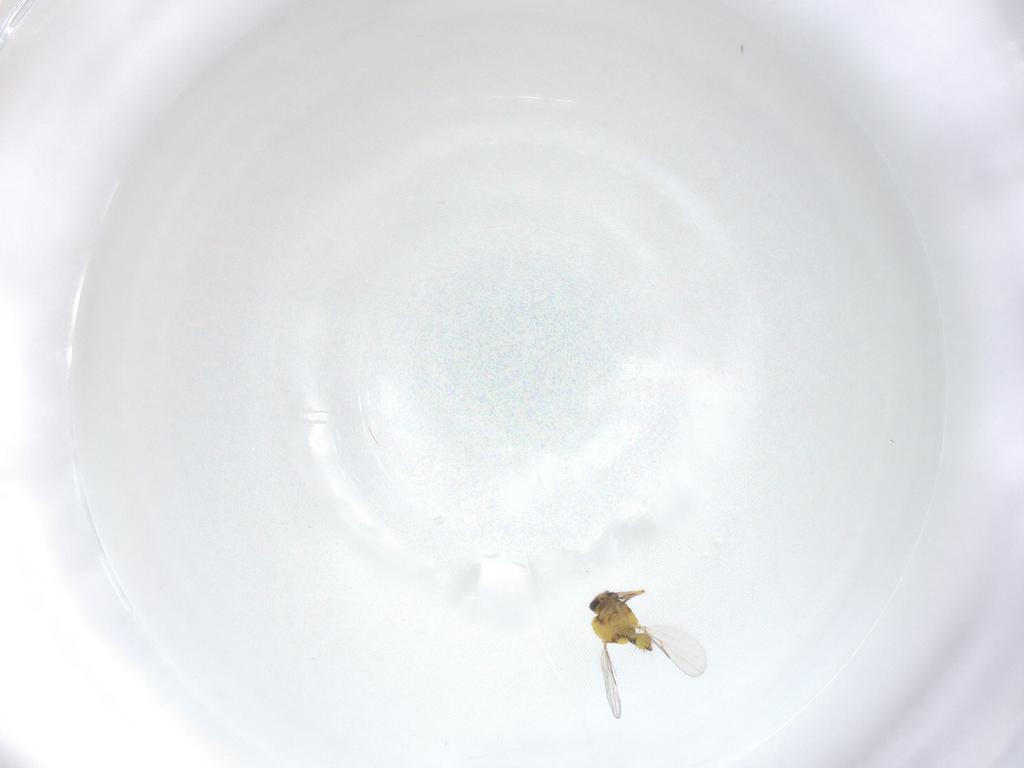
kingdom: Animalia
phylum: Arthropoda
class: Insecta
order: Diptera
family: Ceratopogonidae
